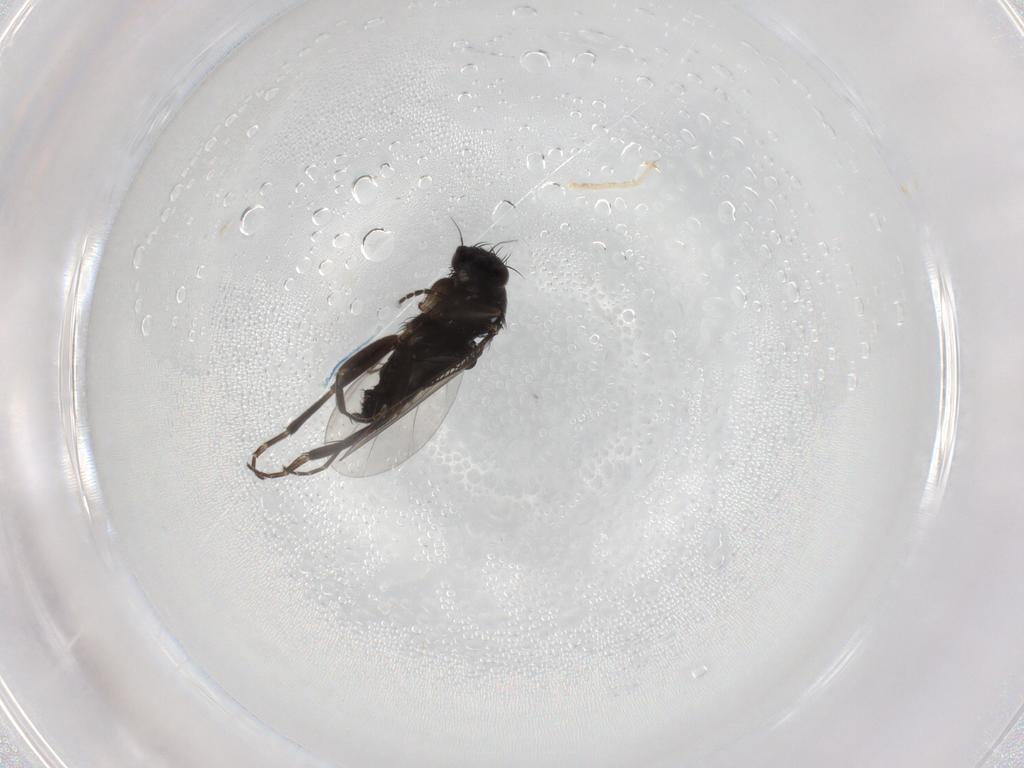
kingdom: Animalia
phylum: Arthropoda
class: Insecta
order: Diptera
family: Phoridae
